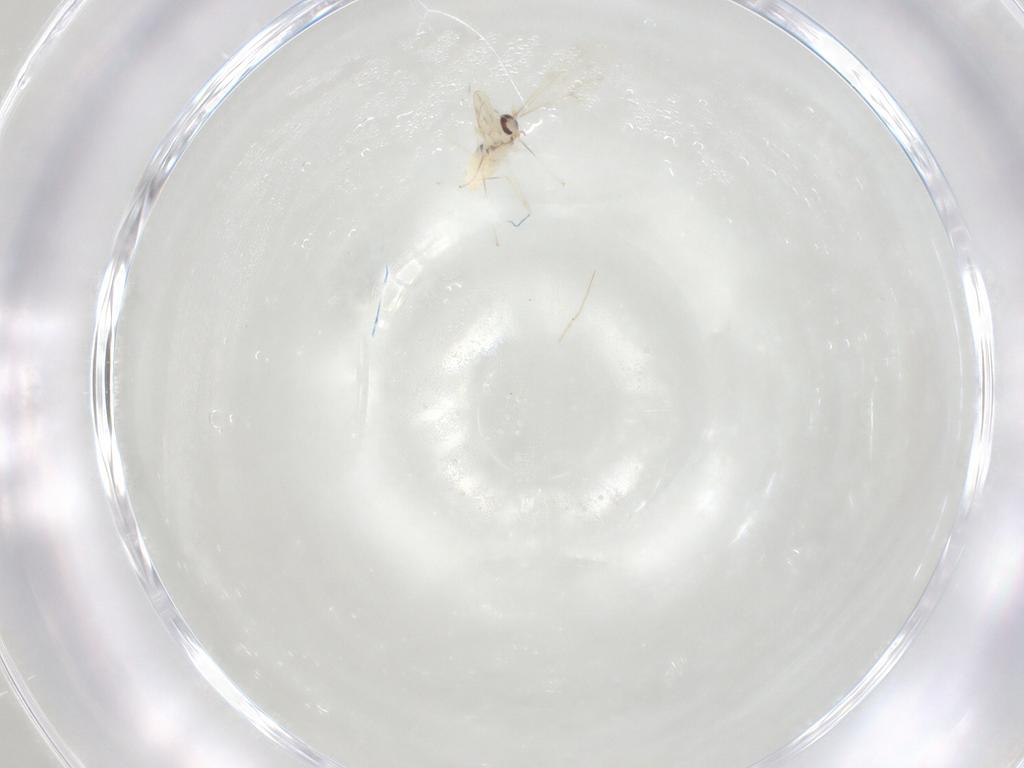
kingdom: Animalia
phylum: Arthropoda
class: Insecta
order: Diptera
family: Cecidomyiidae
